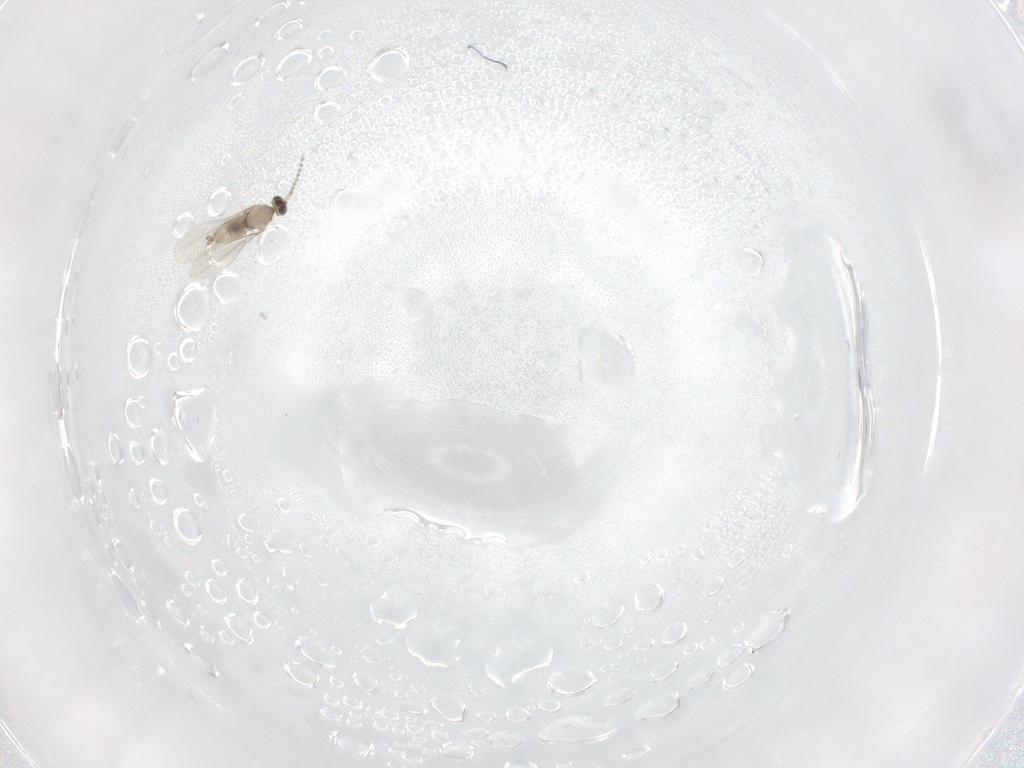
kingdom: Animalia
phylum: Arthropoda
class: Insecta
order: Diptera
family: Cecidomyiidae
